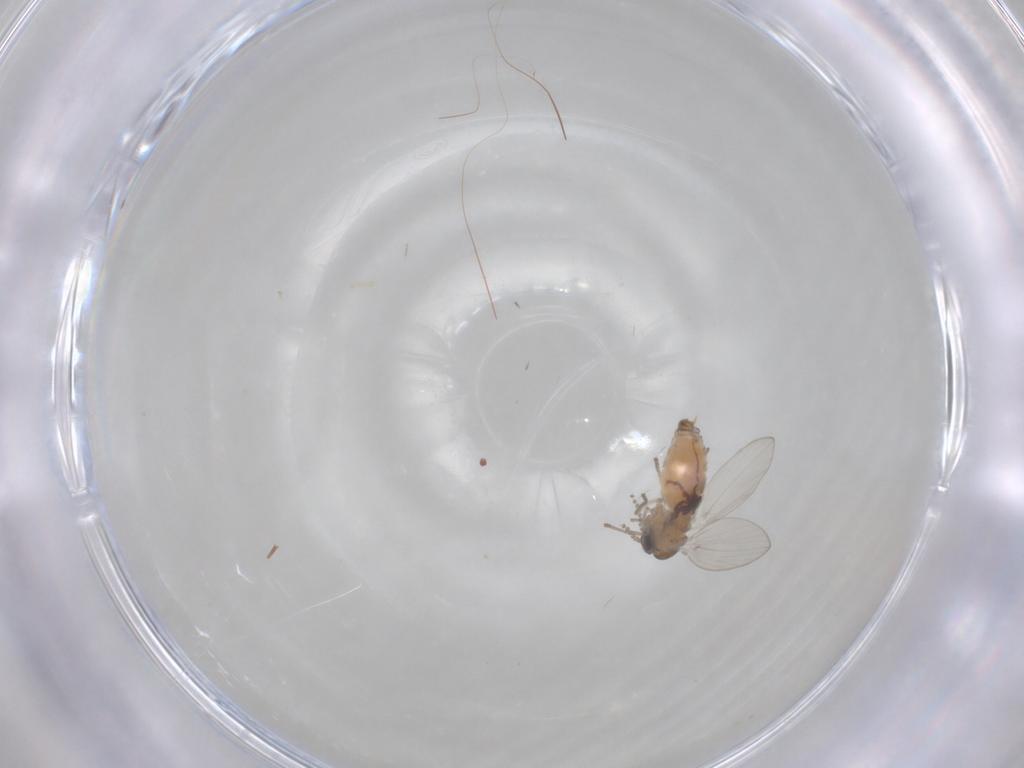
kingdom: Animalia
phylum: Arthropoda
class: Insecta
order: Diptera
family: Psychodidae
